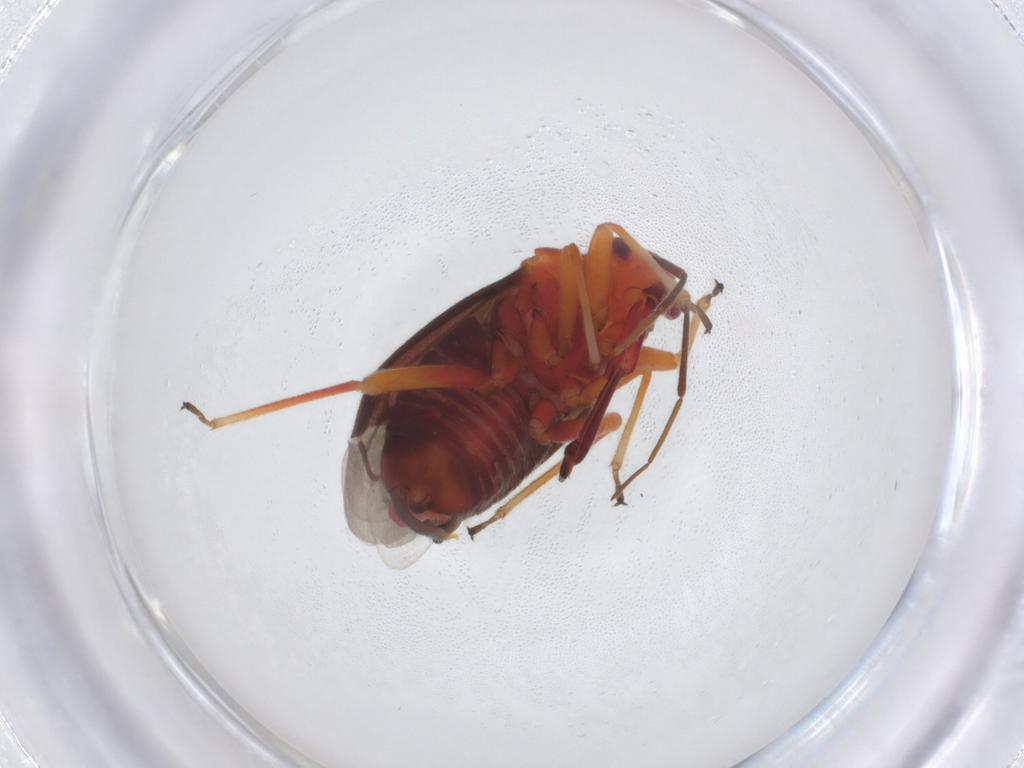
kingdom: Animalia
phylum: Arthropoda
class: Insecta
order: Hemiptera
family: Miridae
